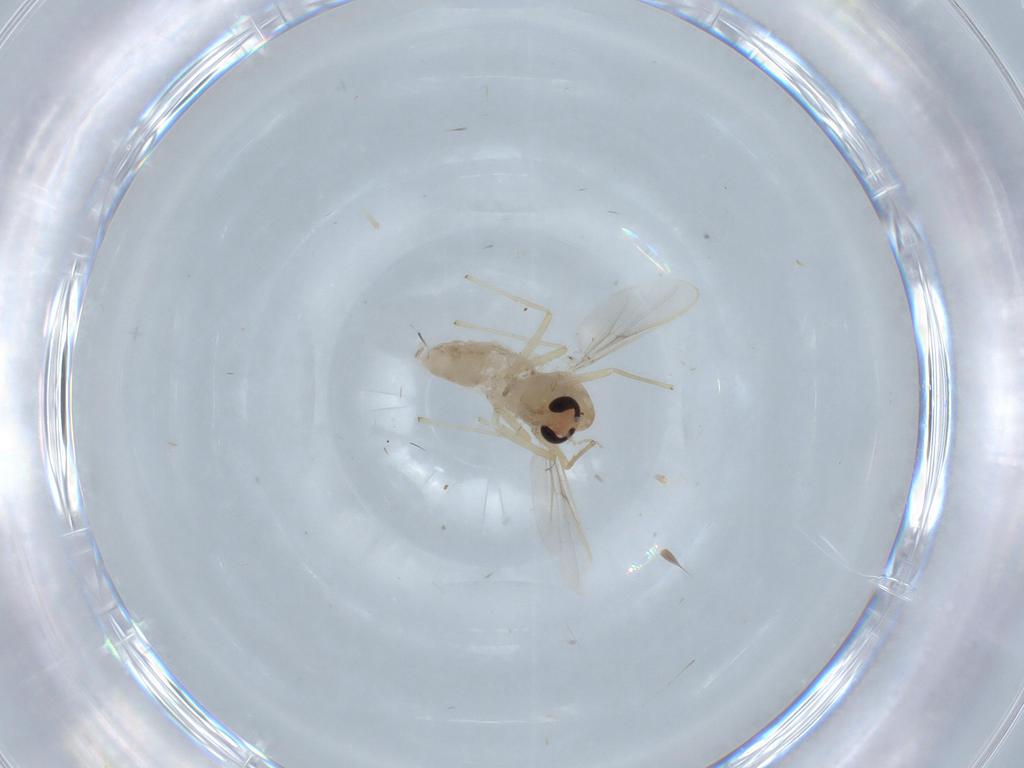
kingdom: Animalia
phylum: Arthropoda
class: Insecta
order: Diptera
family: Chironomidae
